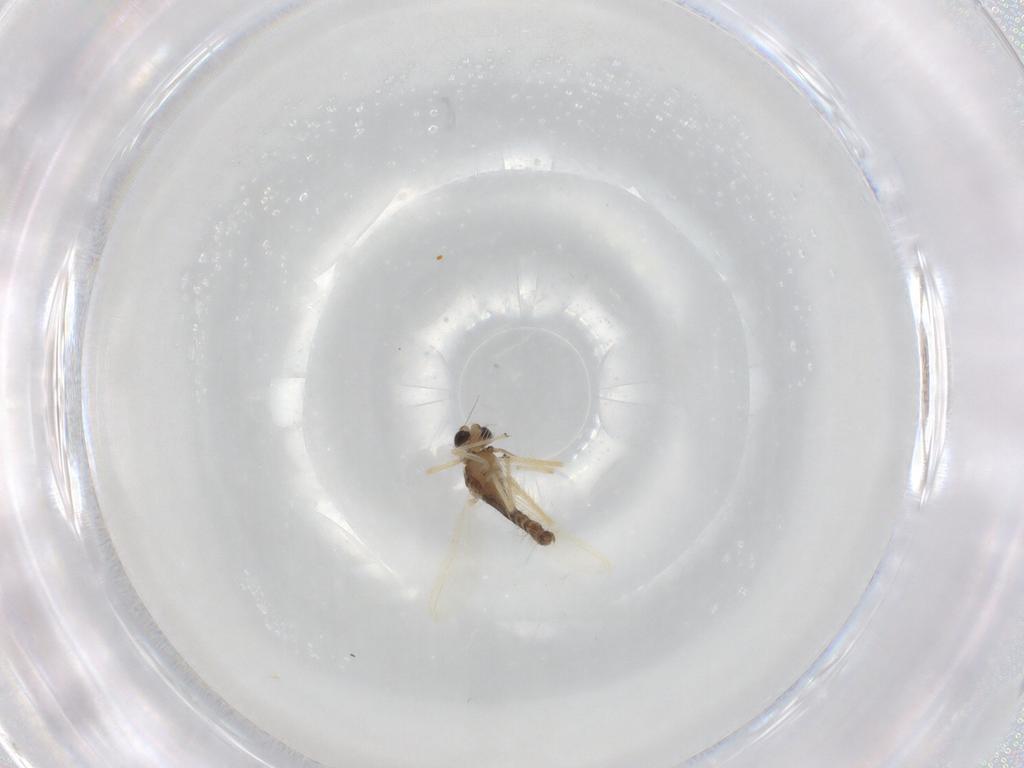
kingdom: Animalia
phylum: Arthropoda
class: Insecta
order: Diptera
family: Chironomidae
